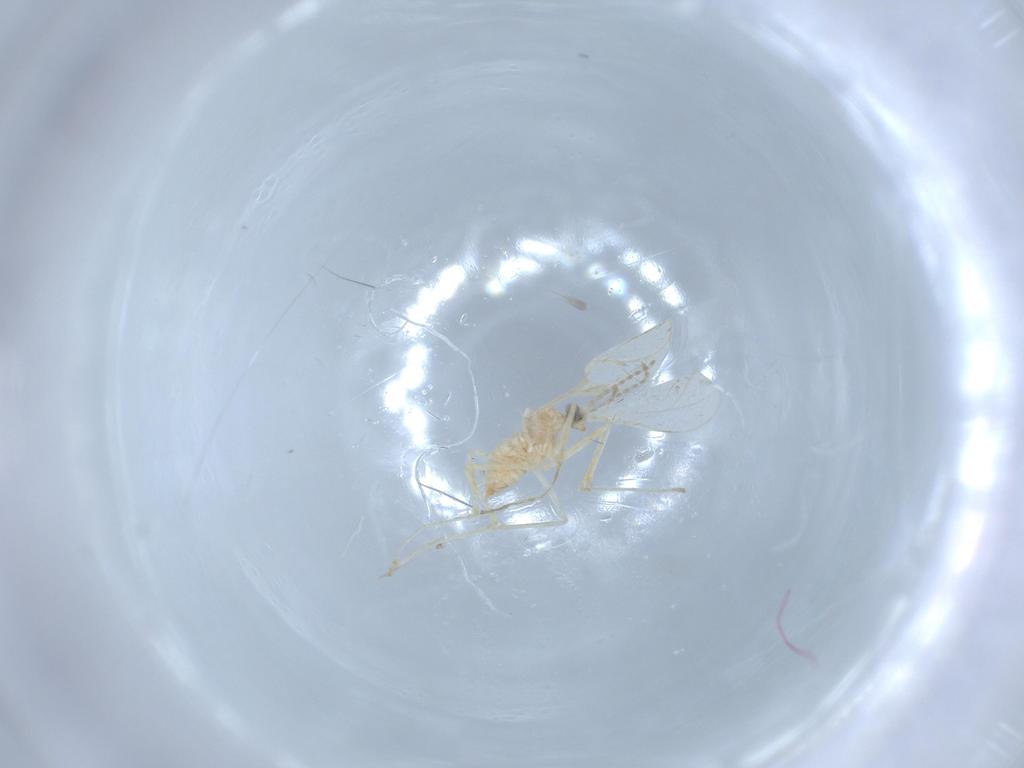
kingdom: Animalia
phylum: Arthropoda
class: Insecta
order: Diptera
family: Cecidomyiidae
